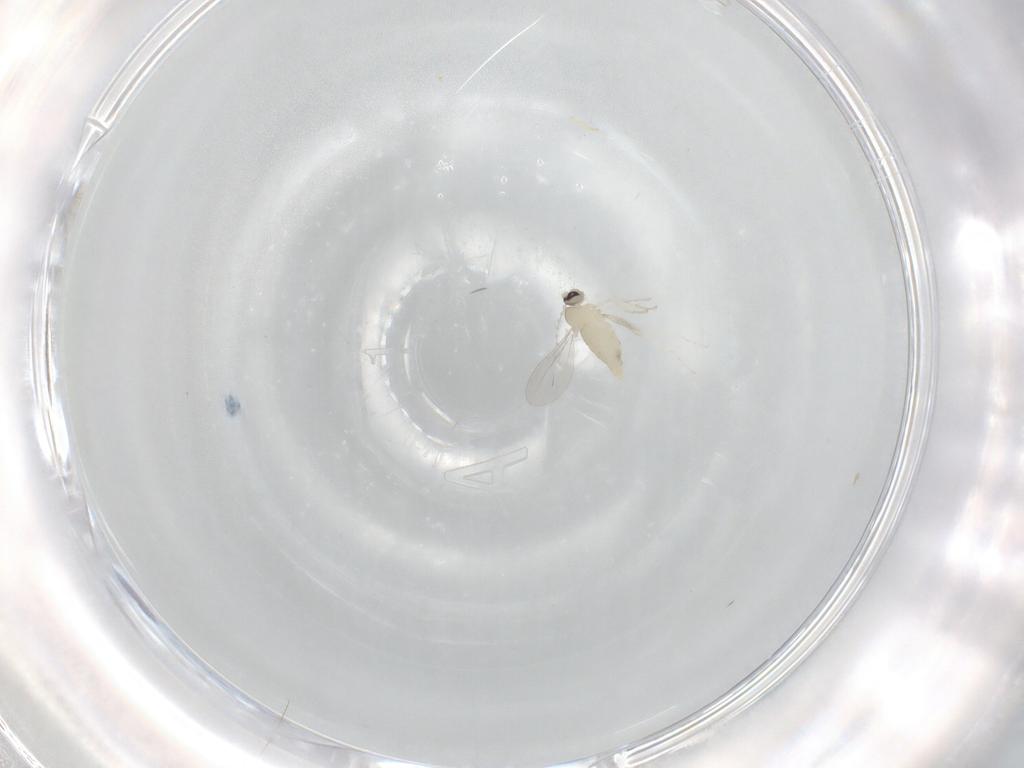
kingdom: Animalia
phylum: Arthropoda
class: Insecta
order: Diptera
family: Cecidomyiidae
